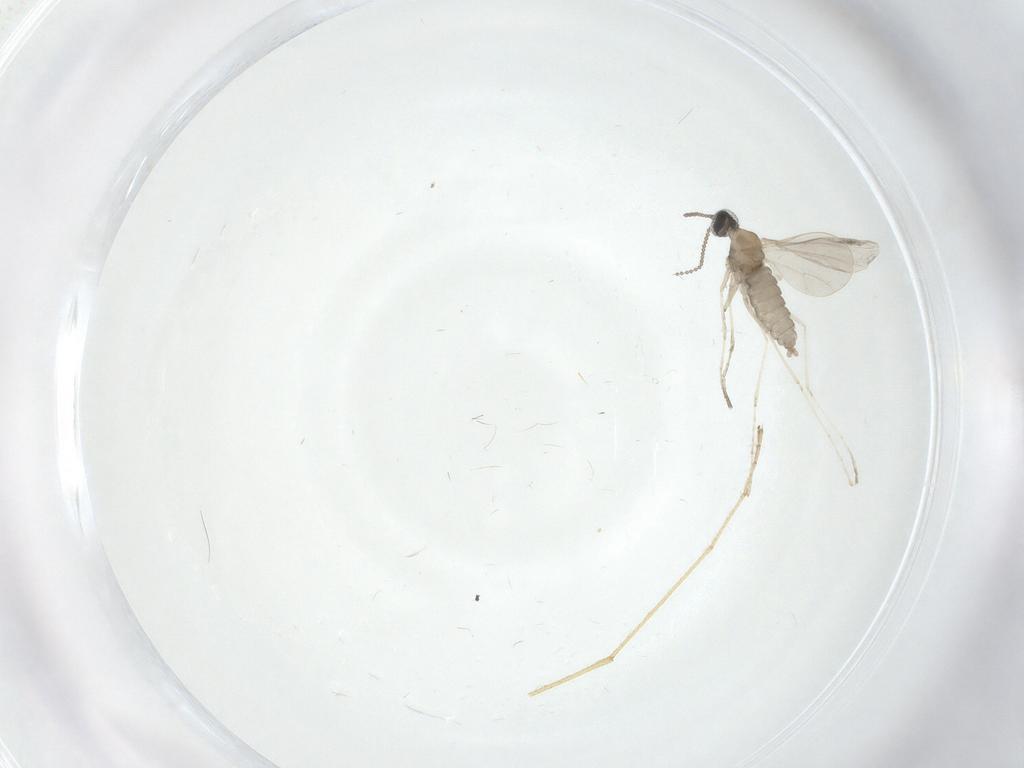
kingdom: Animalia
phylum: Arthropoda
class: Insecta
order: Diptera
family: Cecidomyiidae
